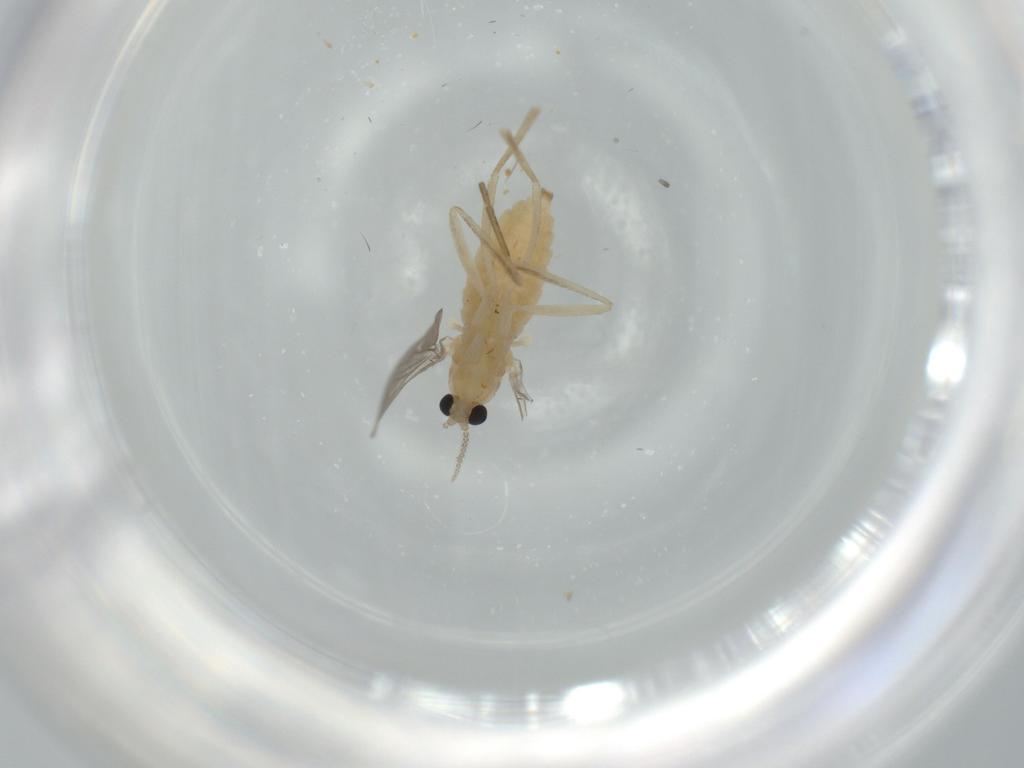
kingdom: Animalia
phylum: Arthropoda
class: Insecta
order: Diptera
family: Cecidomyiidae
